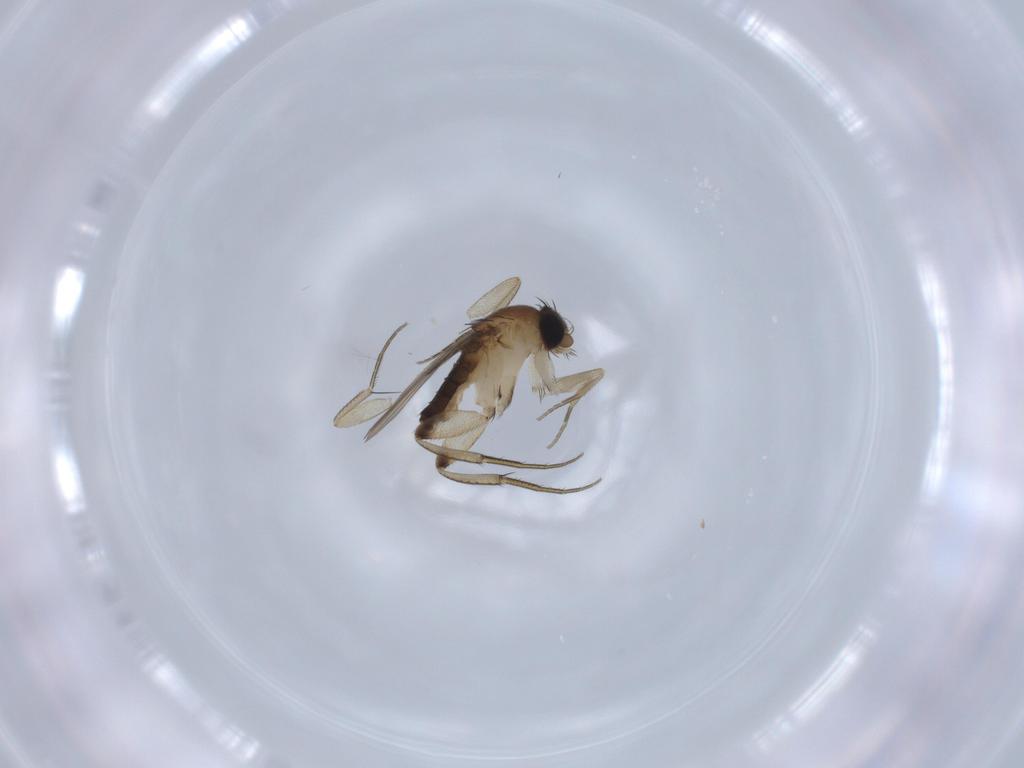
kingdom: Animalia
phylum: Arthropoda
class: Insecta
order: Diptera
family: Phoridae
